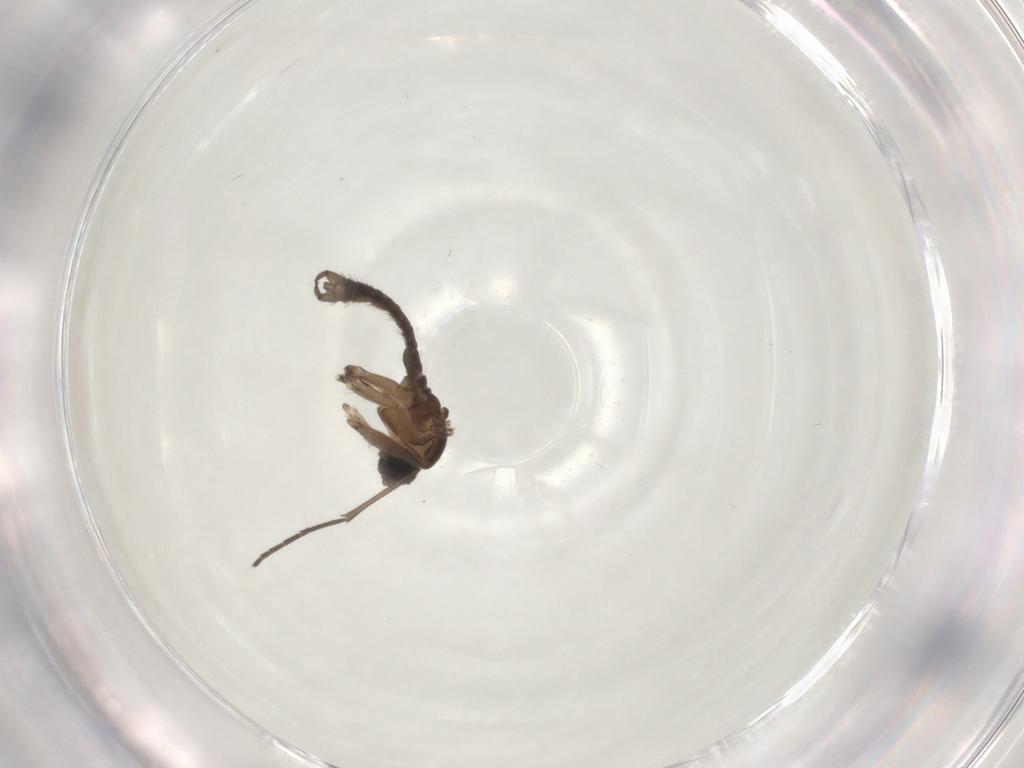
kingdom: Animalia
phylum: Arthropoda
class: Insecta
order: Diptera
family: Sciaridae
